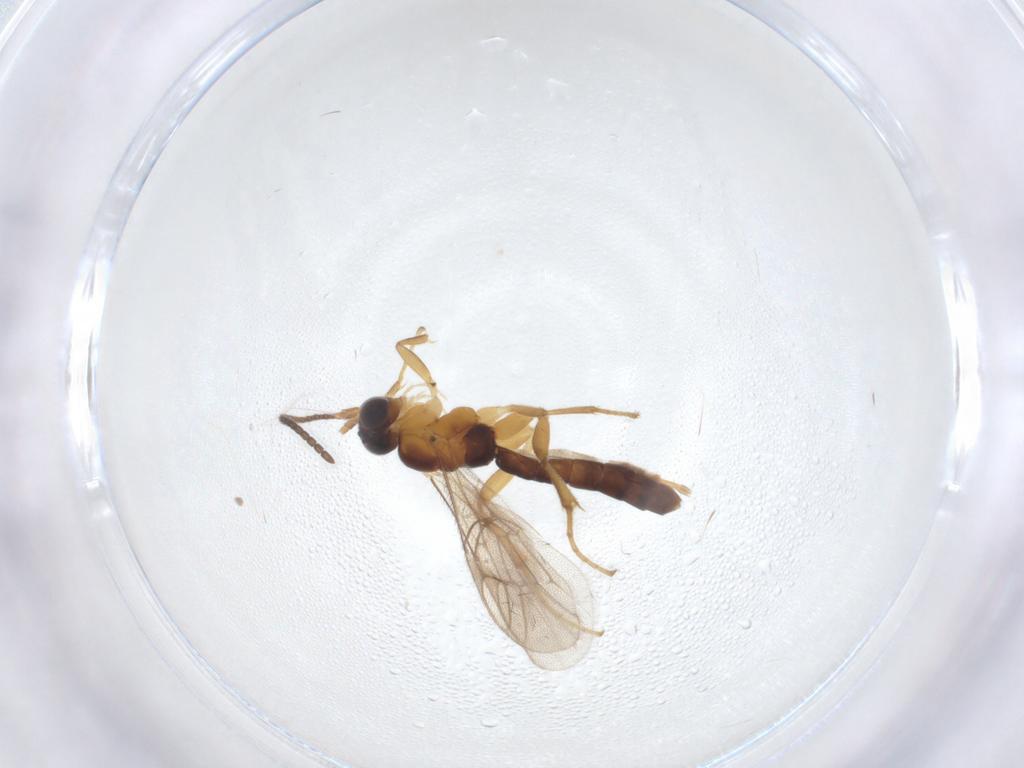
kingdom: Animalia
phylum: Arthropoda
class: Insecta
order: Hymenoptera
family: Ichneumonidae
